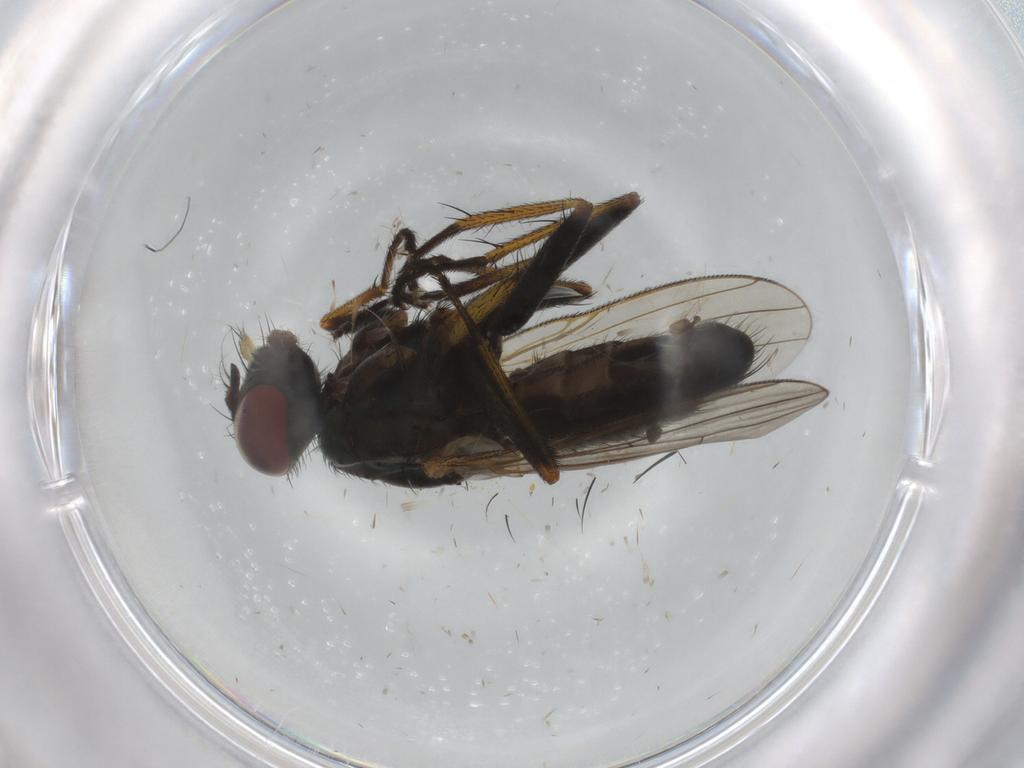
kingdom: Animalia
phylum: Arthropoda
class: Insecta
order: Diptera
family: Muscidae
